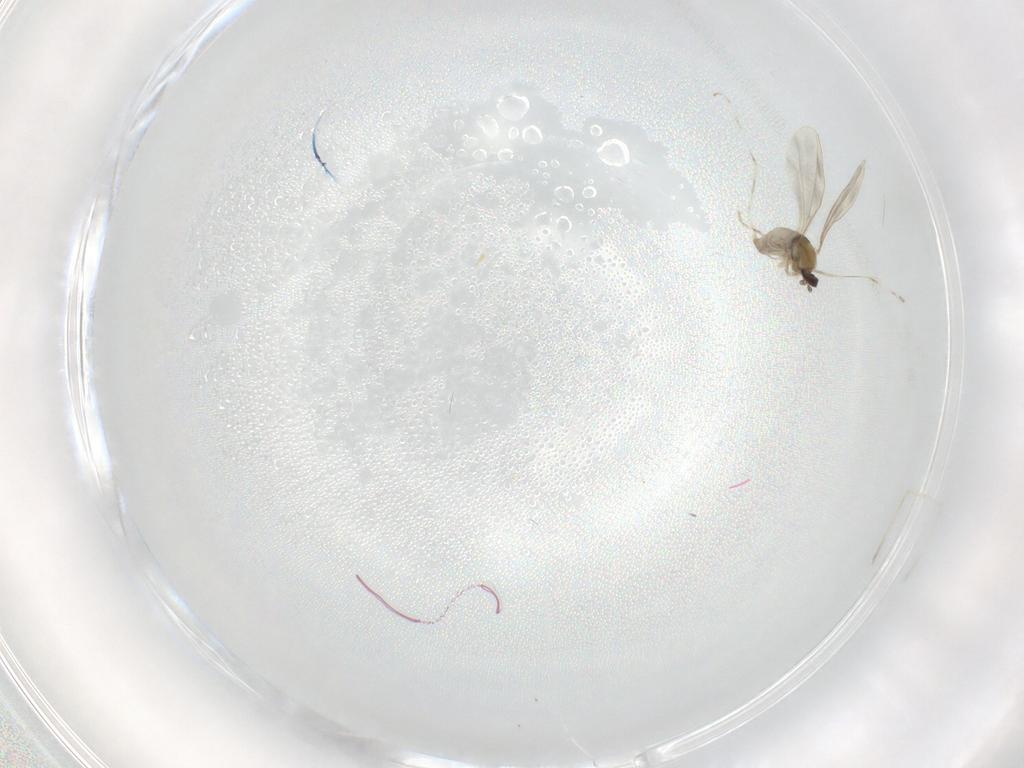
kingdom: Animalia
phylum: Arthropoda
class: Insecta
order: Diptera
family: Cecidomyiidae
